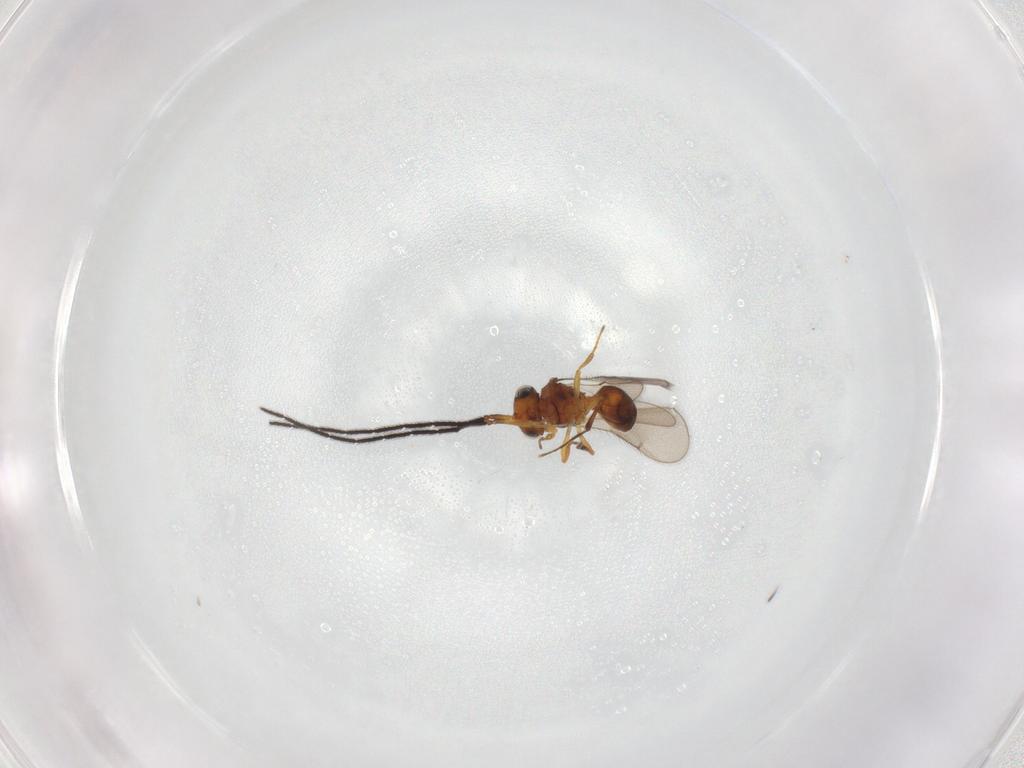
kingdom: Animalia
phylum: Arthropoda
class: Insecta
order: Hymenoptera
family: Scelionidae
